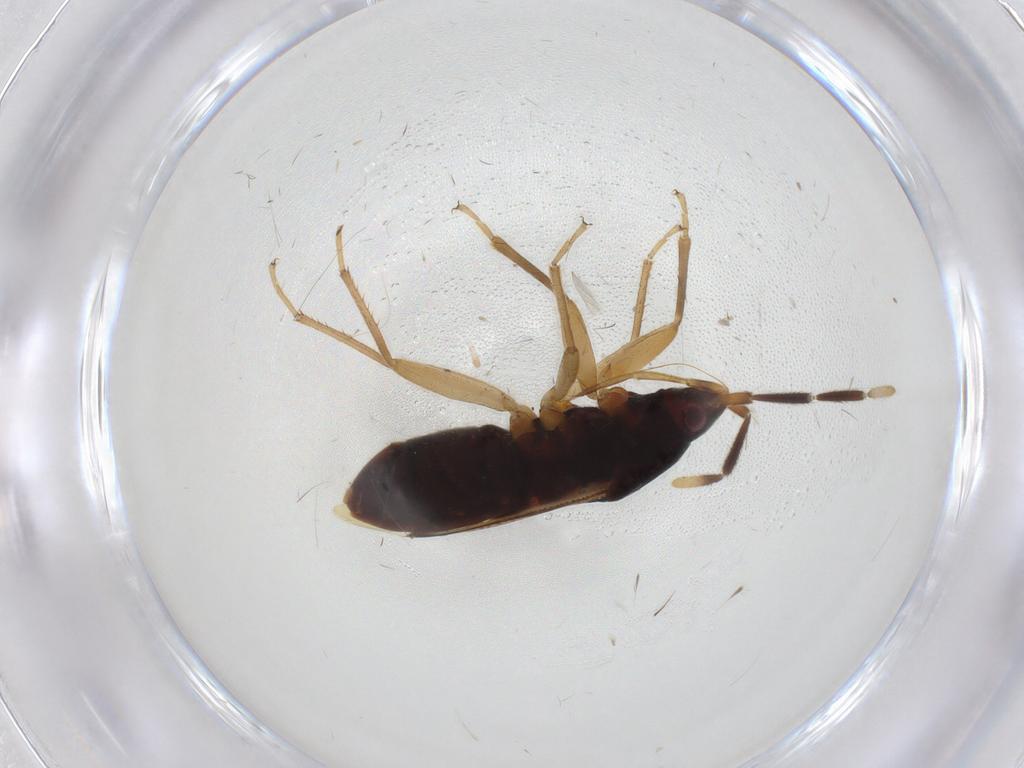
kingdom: Animalia
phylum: Arthropoda
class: Insecta
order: Hemiptera
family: Rhyparochromidae
